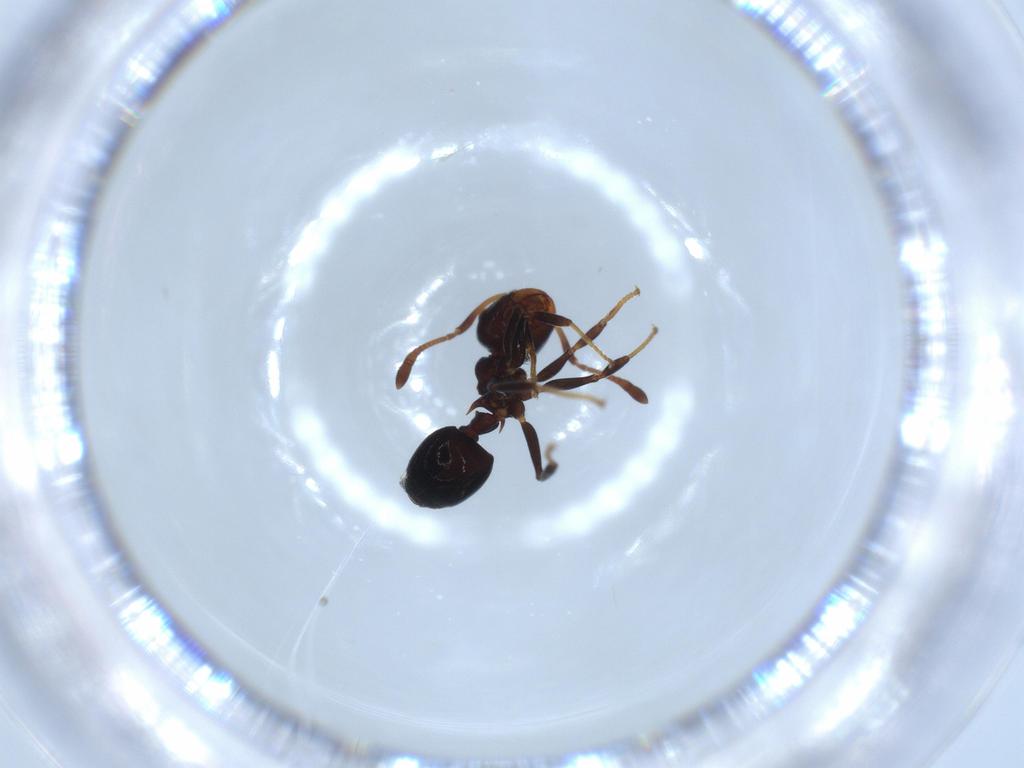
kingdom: Animalia
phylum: Arthropoda
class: Insecta
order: Hymenoptera
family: Formicidae
